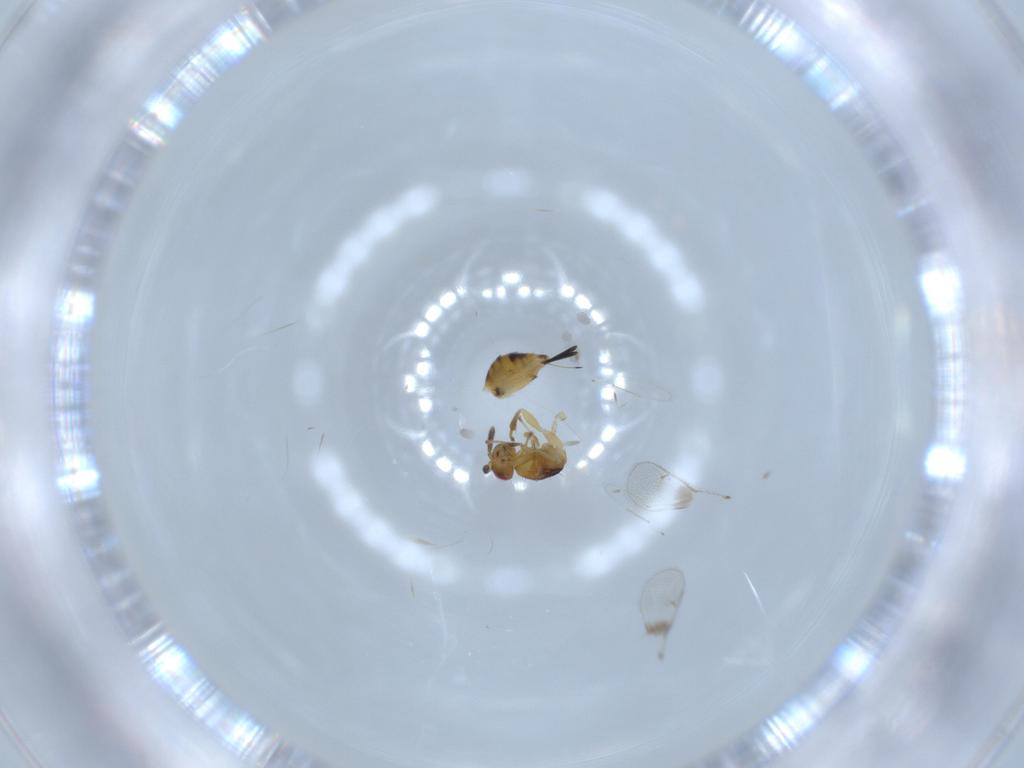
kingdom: Animalia
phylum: Arthropoda
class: Insecta
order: Hymenoptera
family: Torymidae
